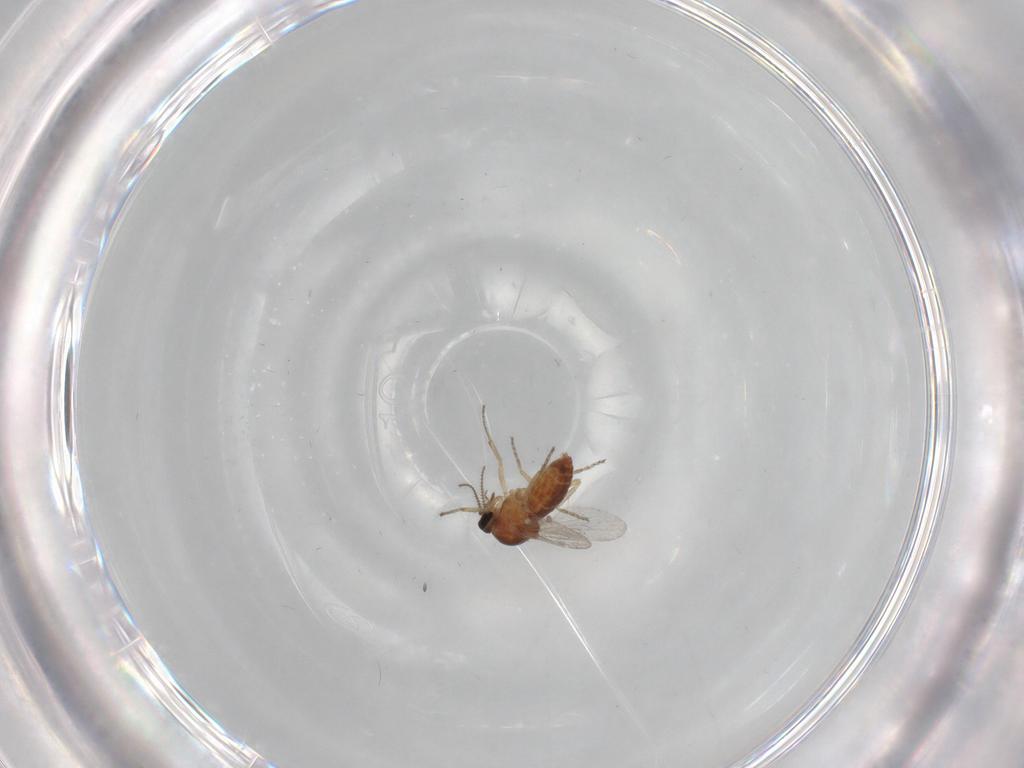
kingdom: Animalia
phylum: Arthropoda
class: Insecta
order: Diptera
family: Ceratopogonidae
